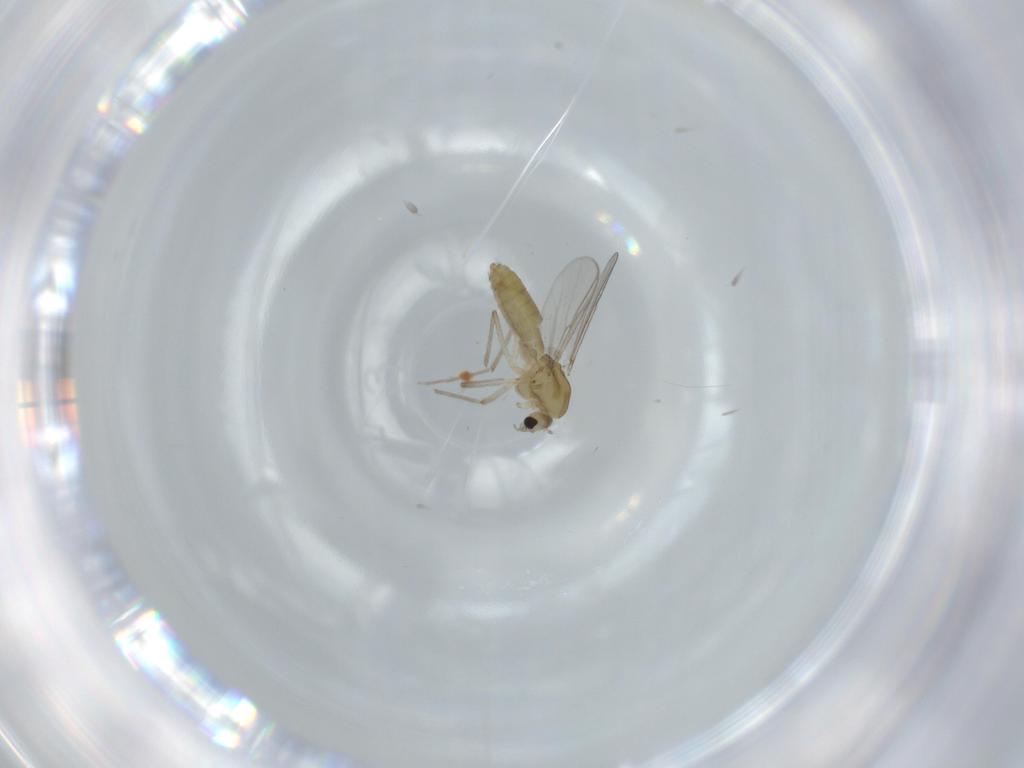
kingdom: Animalia
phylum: Arthropoda
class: Insecta
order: Diptera
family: Chironomidae
